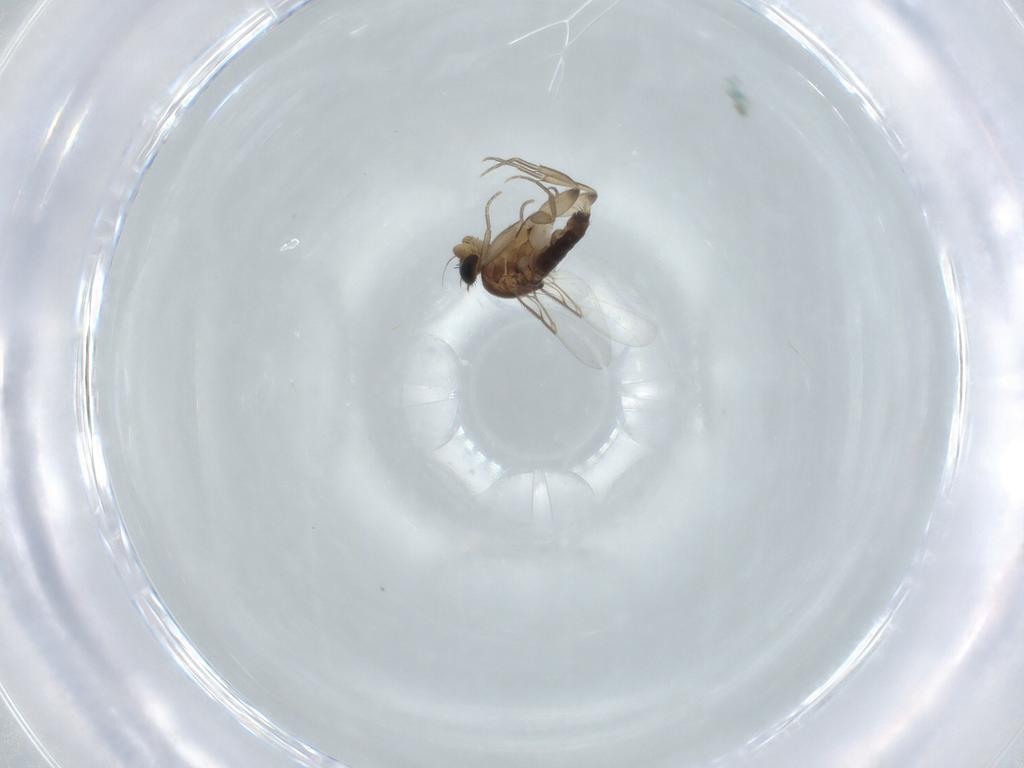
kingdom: Animalia
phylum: Arthropoda
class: Insecta
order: Diptera
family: Phoridae
